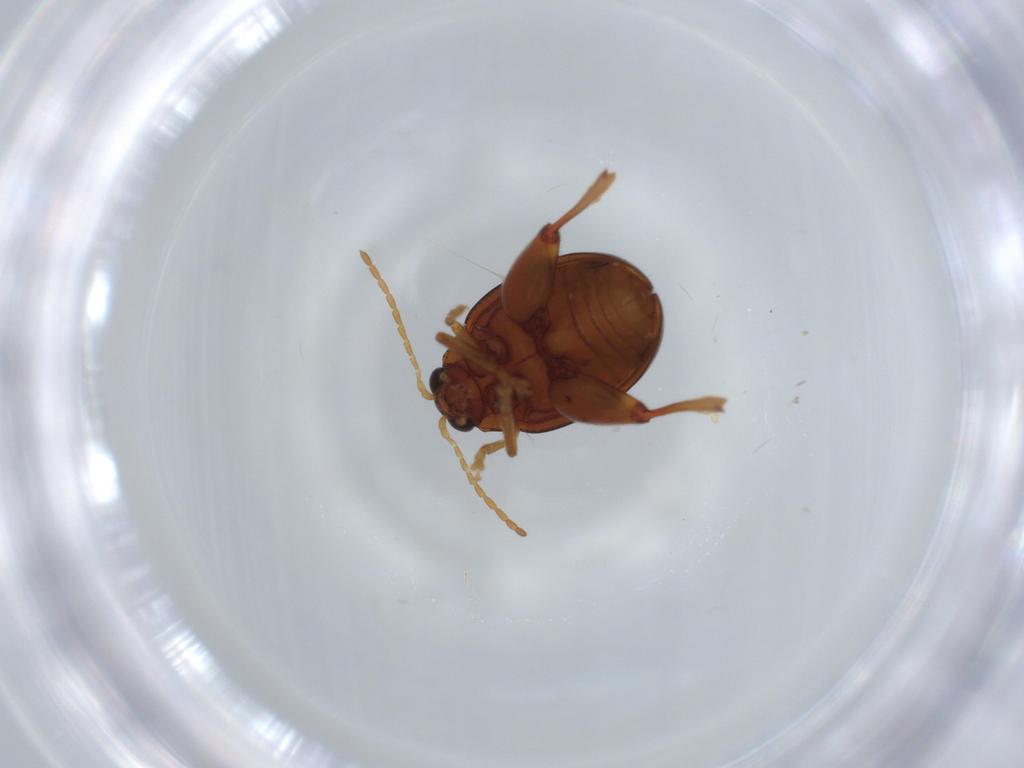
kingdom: Animalia
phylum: Arthropoda
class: Insecta
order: Coleoptera
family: Chrysomelidae
